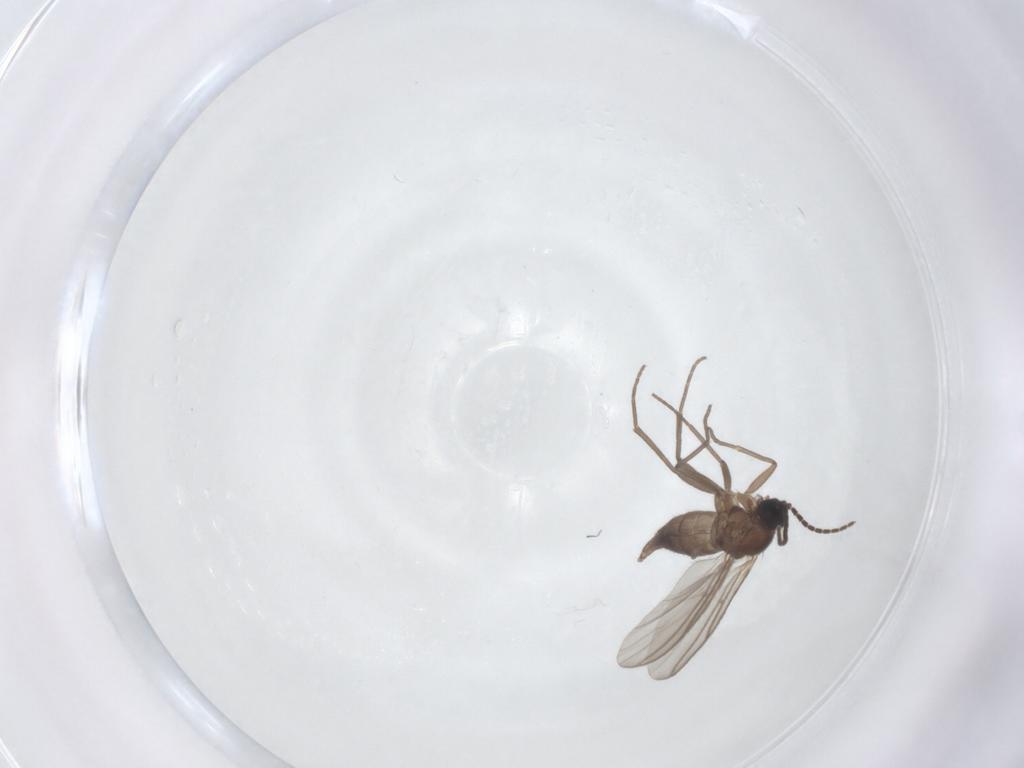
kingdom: Animalia
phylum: Arthropoda
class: Insecta
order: Diptera
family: Sciaridae
